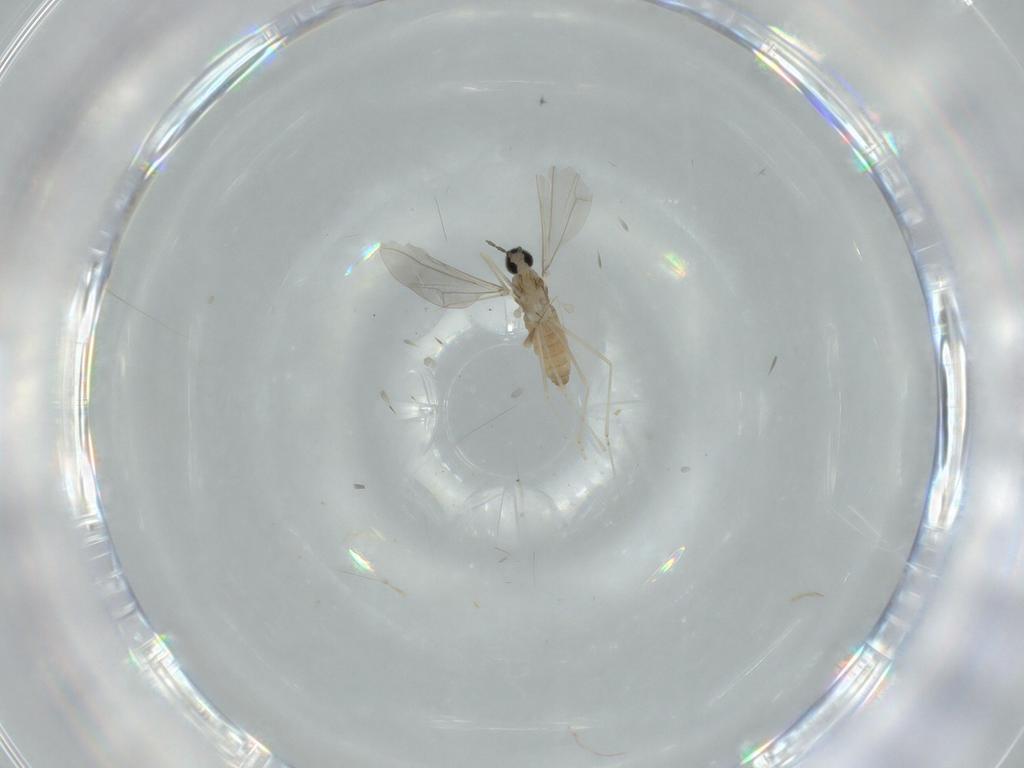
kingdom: Animalia
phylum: Arthropoda
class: Insecta
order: Diptera
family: Cecidomyiidae
